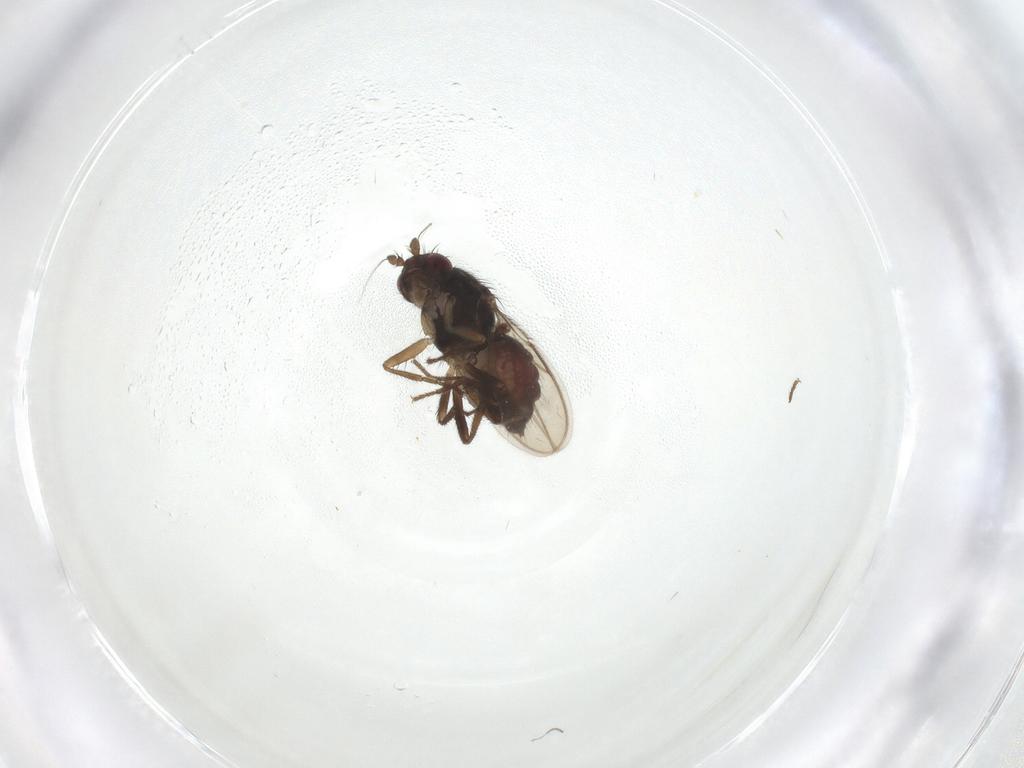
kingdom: Animalia
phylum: Arthropoda
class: Insecta
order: Diptera
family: Sphaeroceridae
